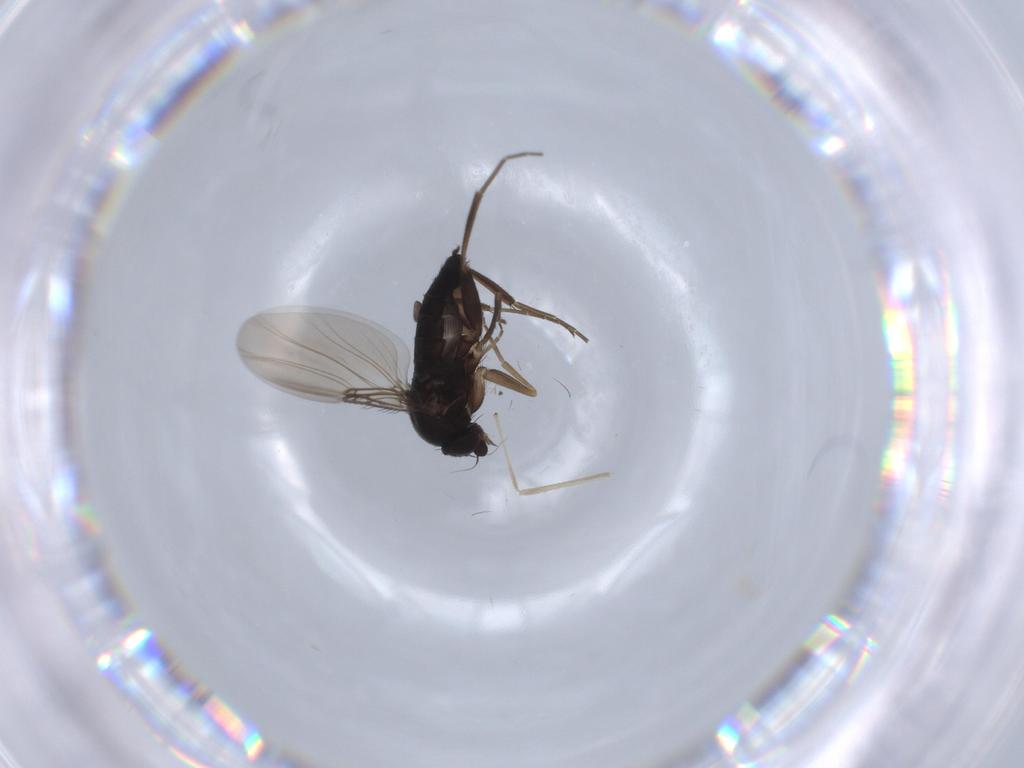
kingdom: Animalia
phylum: Arthropoda
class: Insecta
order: Diptera
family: Phoridae
